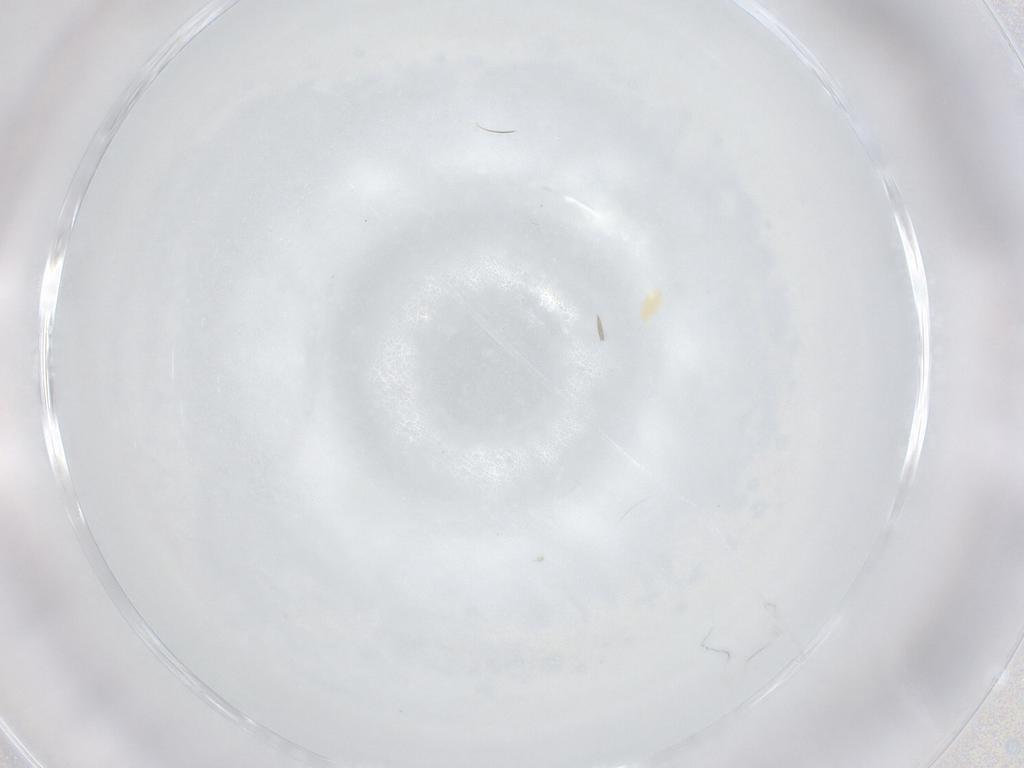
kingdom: Animalia
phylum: Arthropoda
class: Arachnida
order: Trombidiformes
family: Eupodidae
